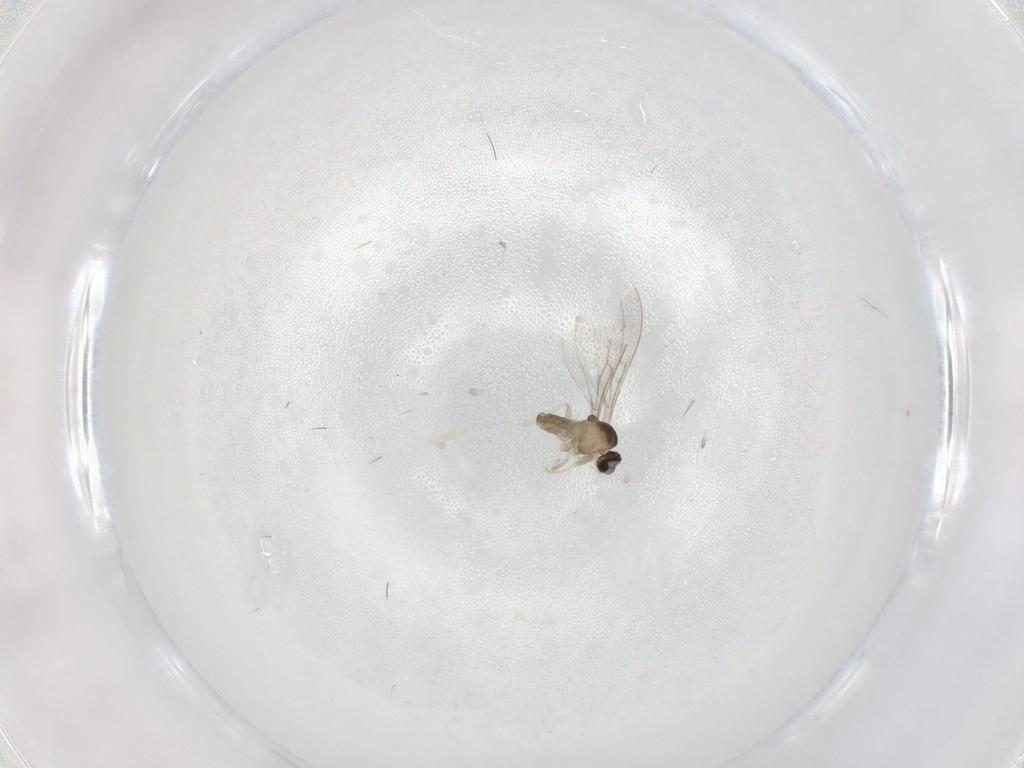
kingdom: Animalia
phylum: Arthropoda
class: Insecta
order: Diptera
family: Cecidomyiidae
